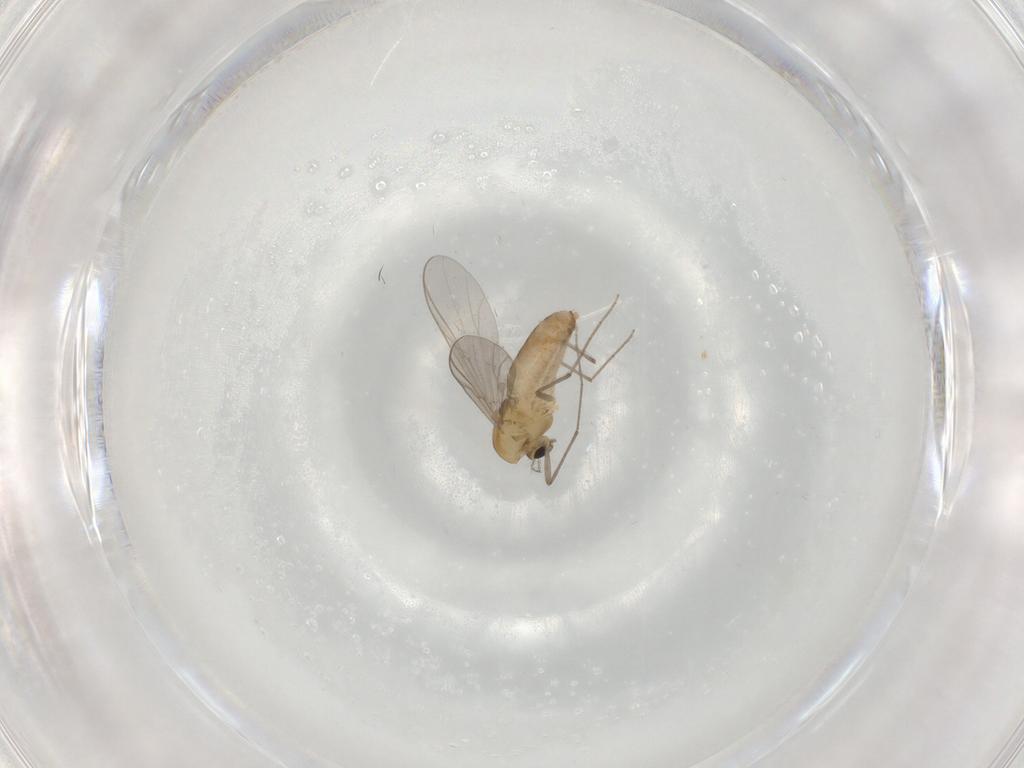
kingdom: Animalia
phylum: Arthropoda
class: Insecta
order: Diptera
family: Chironomidae
